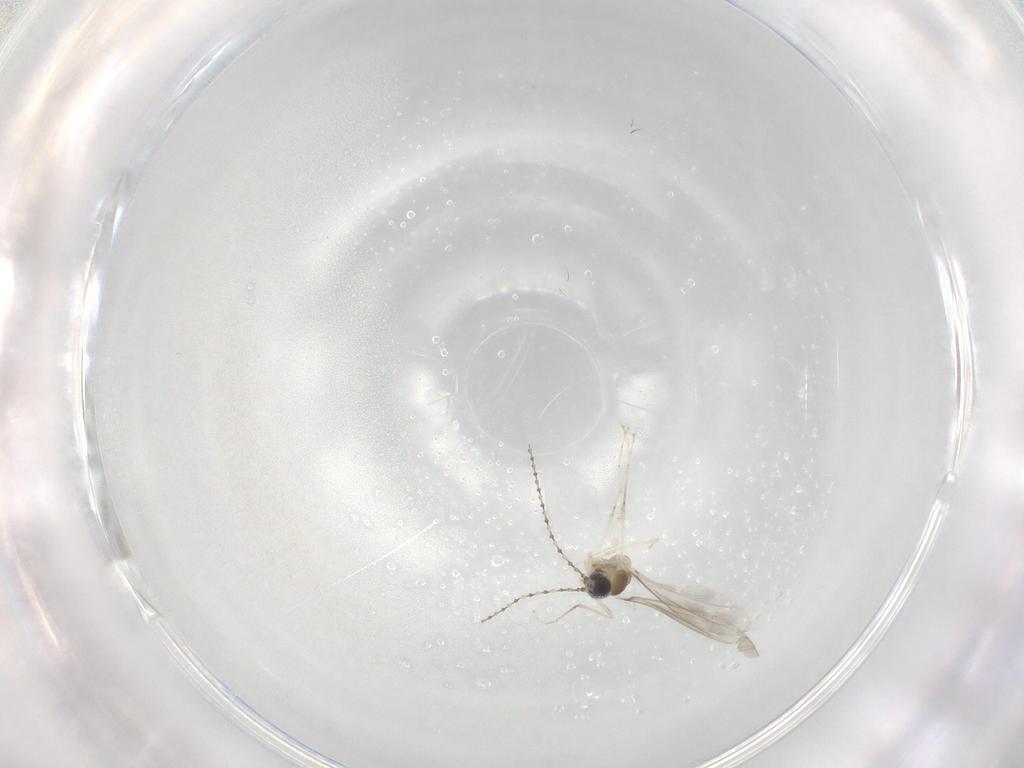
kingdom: Animalia
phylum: Arthropoda
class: Insecta
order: Diptera
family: Cecidomyiidae
